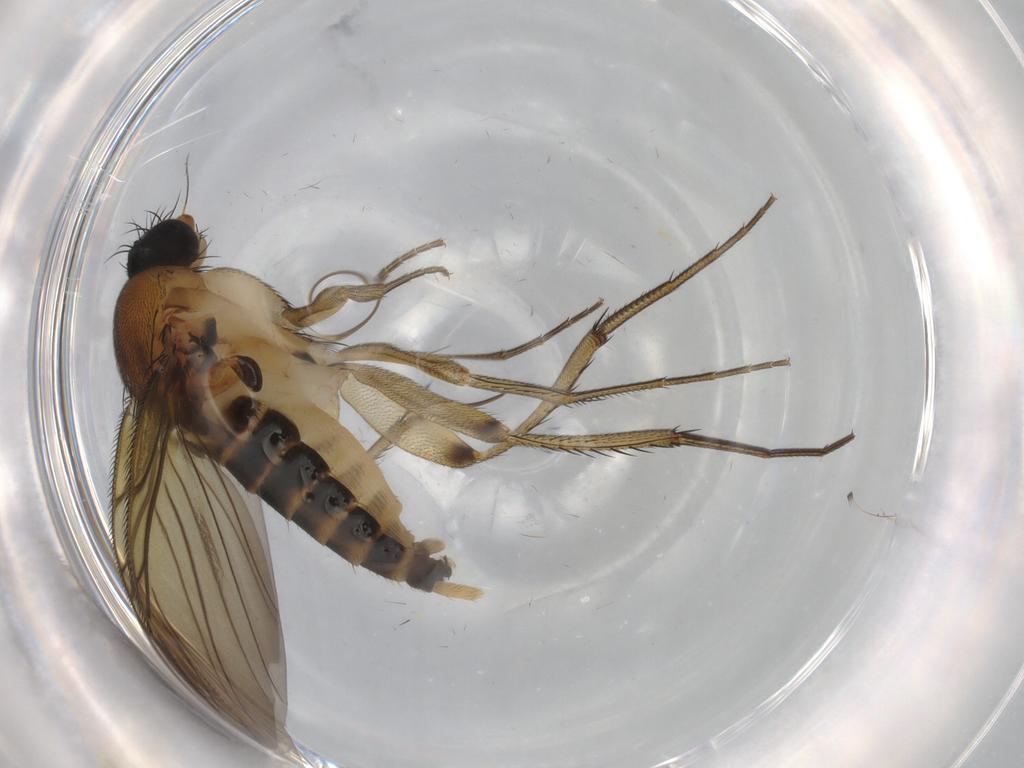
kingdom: Animalia
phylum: Arthropoda
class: Insecta
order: Diptera
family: Phoridae
